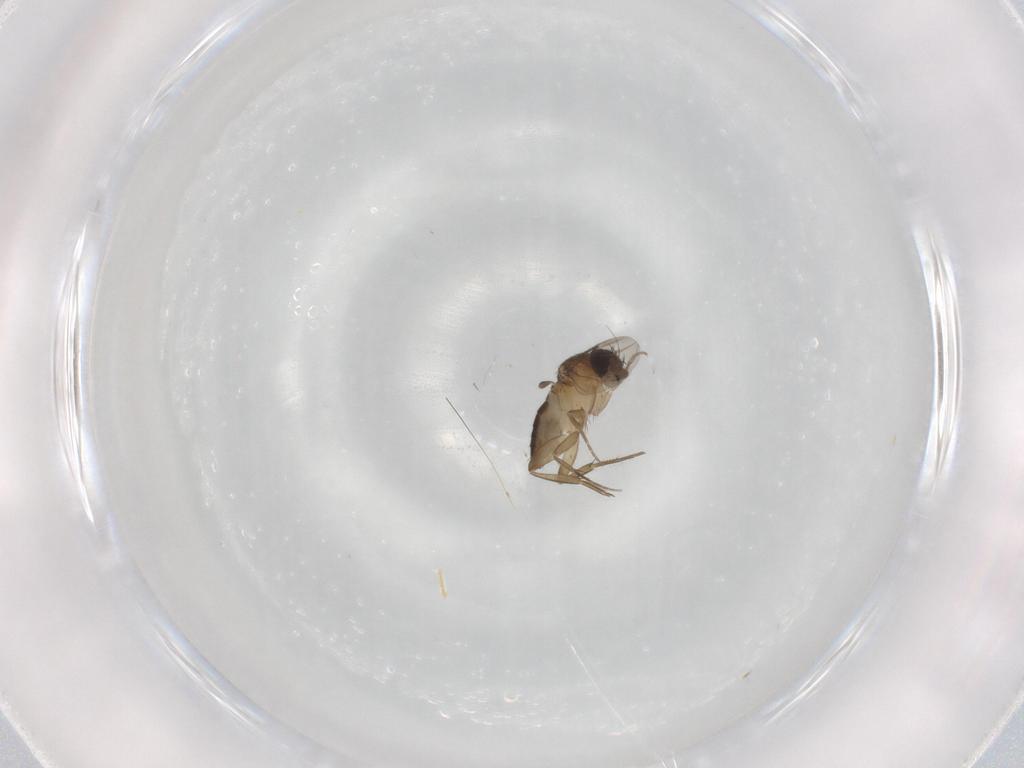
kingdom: Animalia
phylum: Arthropoda
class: Insecta
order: Diptera
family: Phoridae
